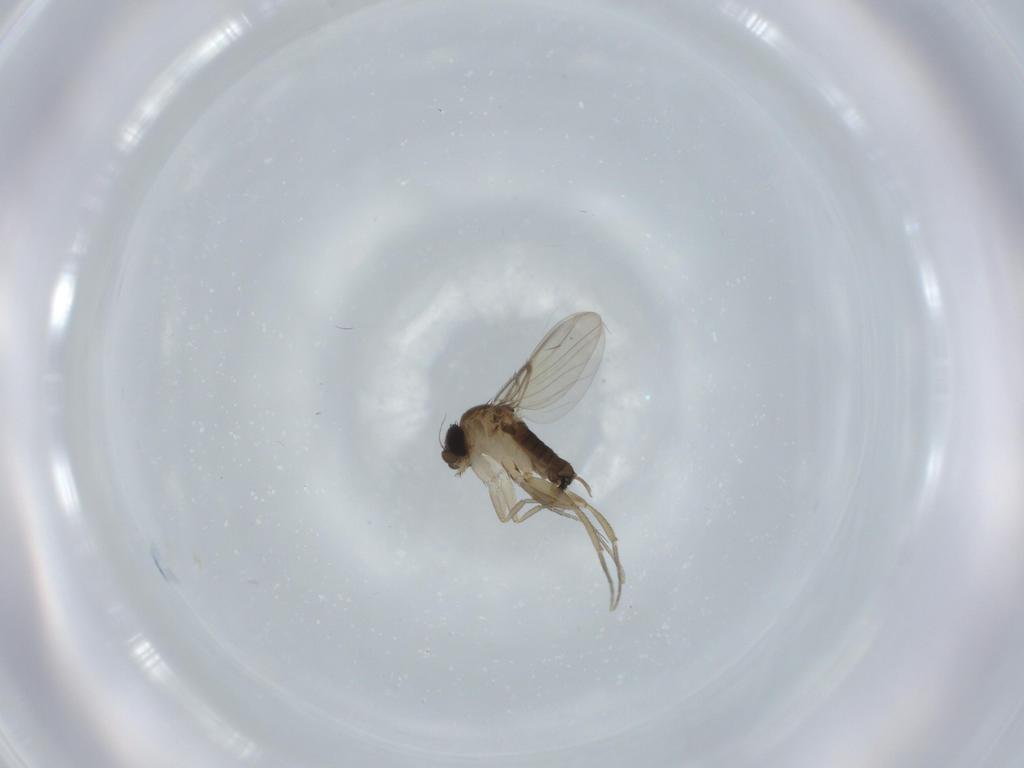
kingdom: Animalia
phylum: Arthropoda
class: Insecta
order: Diptera
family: Phoridae
